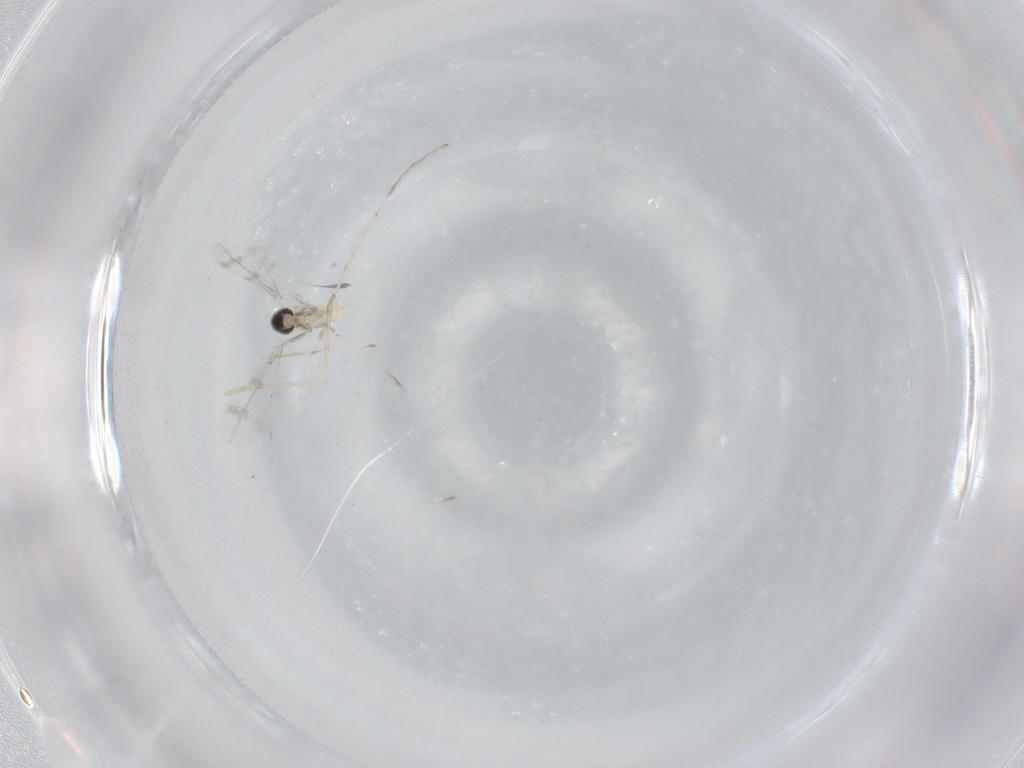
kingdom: Animalia
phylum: Arthropoda
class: Insecta
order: Diptera
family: Cecidomyiidae
